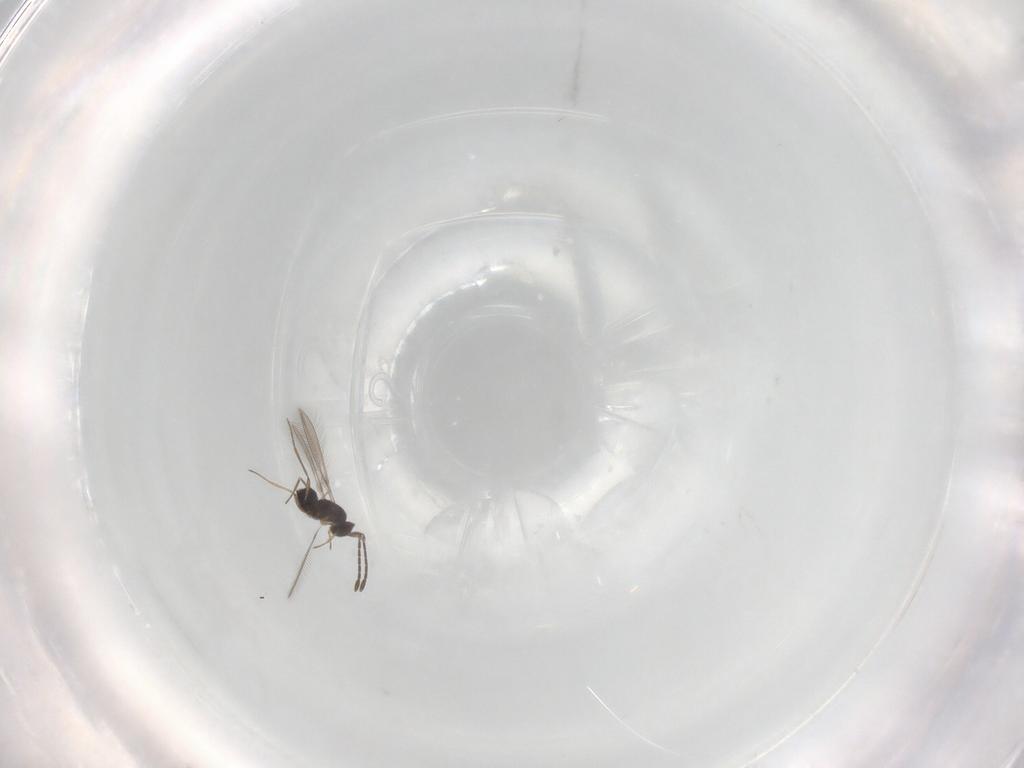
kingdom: Animalia
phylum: Arthropoda
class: Insecta
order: Hymenoptera
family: Mymaridae
